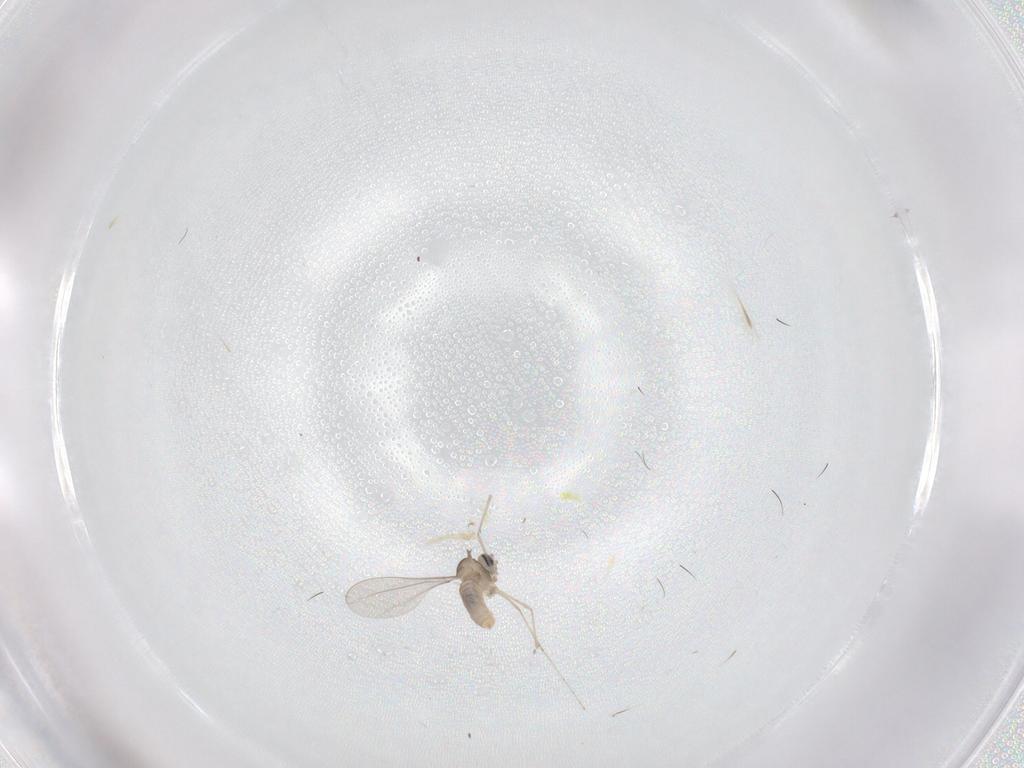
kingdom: Animalia
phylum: Arthropoda
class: Insecta
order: Diptera
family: Cecidomyiidae
